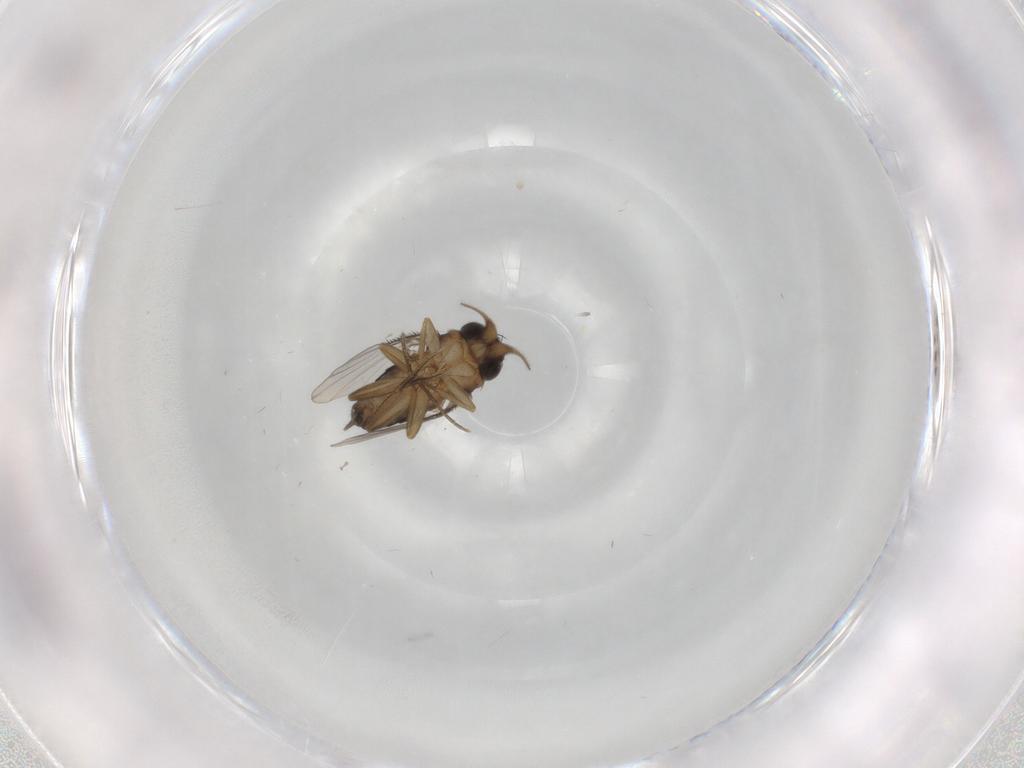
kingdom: Animalia
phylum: Arthropoda
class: Insecta
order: Diptera
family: Phoridae
